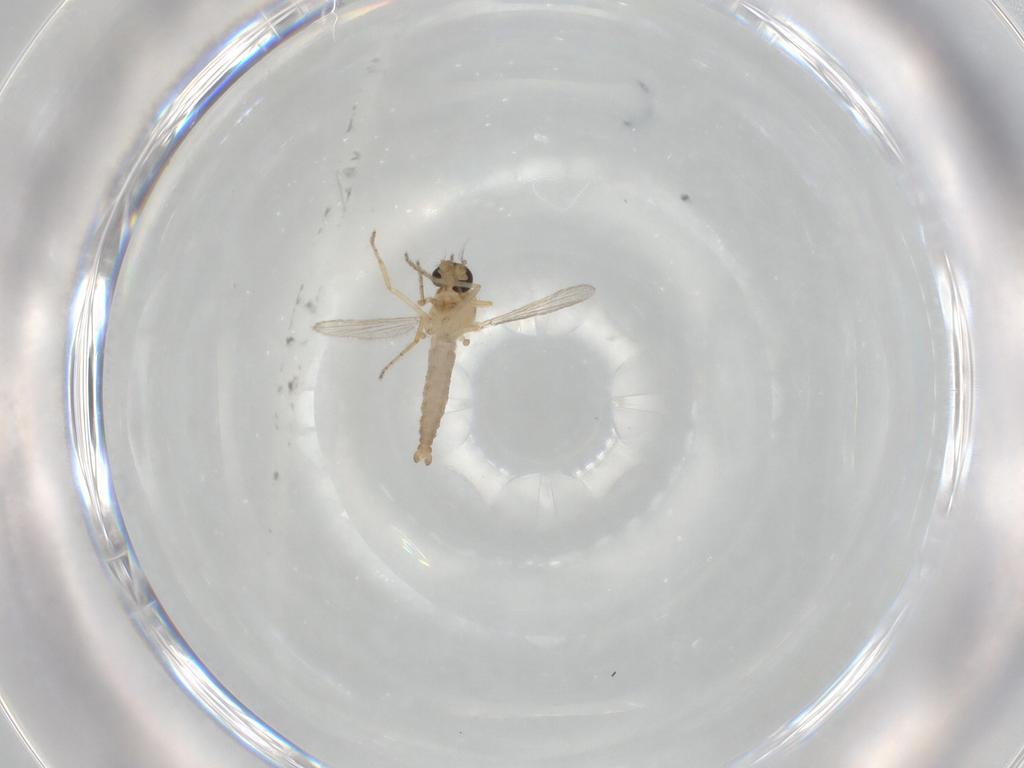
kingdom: Animalia
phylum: Arthropoda
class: Insecta
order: Diptera
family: Ceratopogonidae
